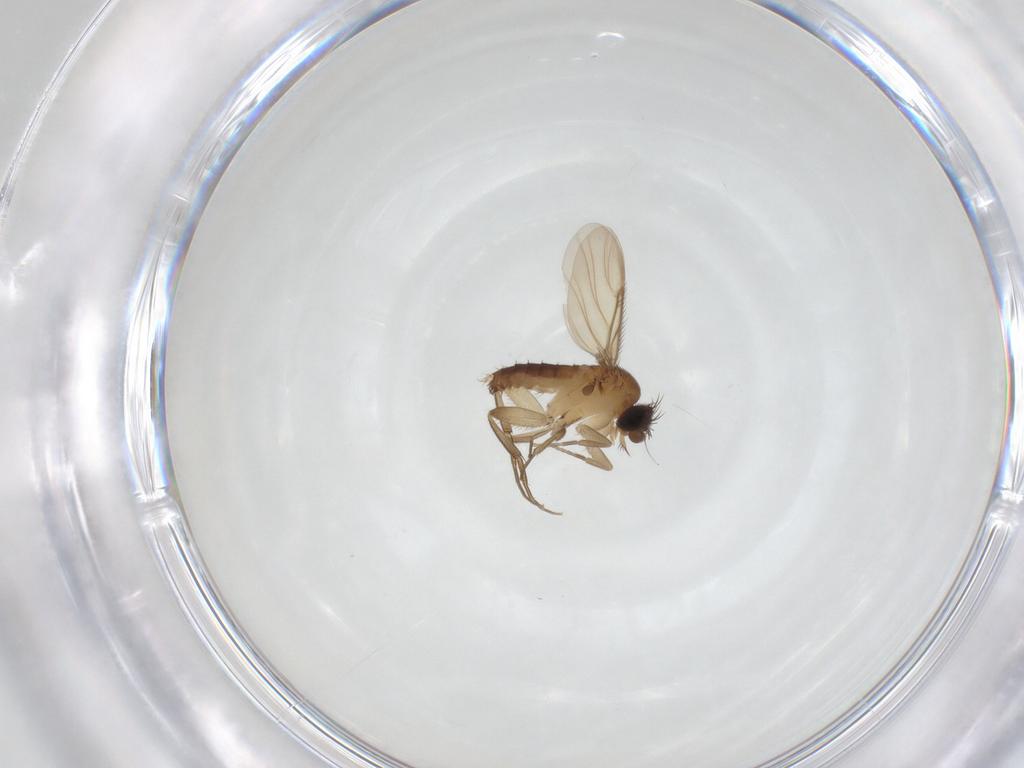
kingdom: Animalia
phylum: Arthropoda
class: Insecta
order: Diptera
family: Phoridae
